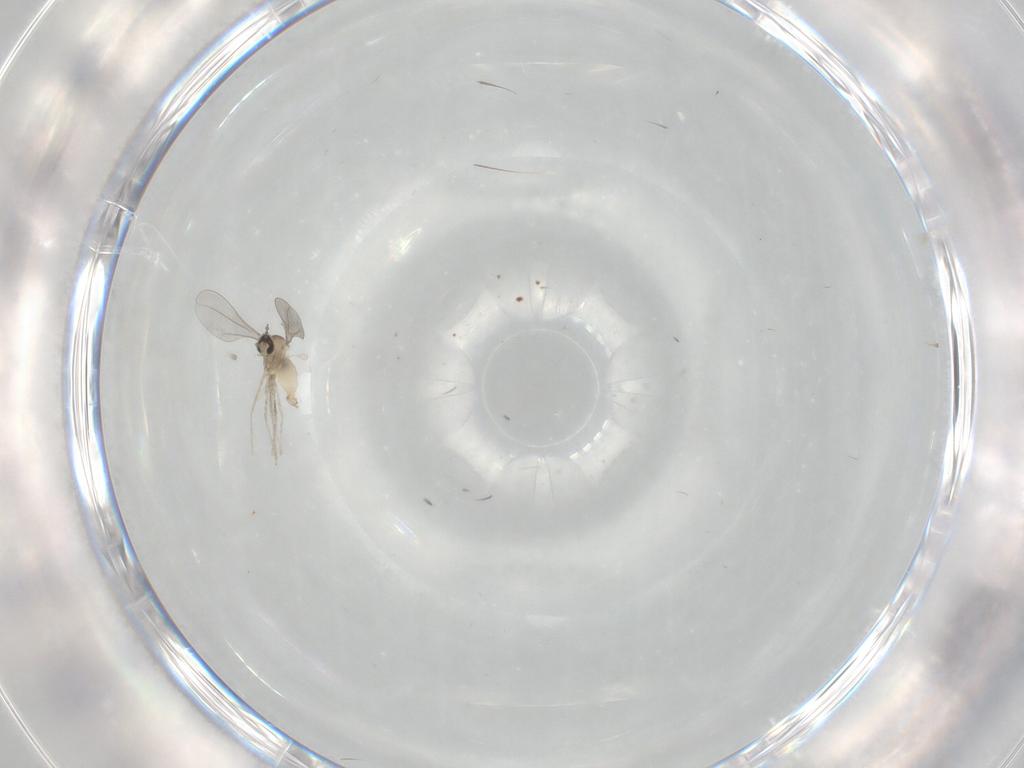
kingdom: Animalia
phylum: Arthropoda
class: Insecta
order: Diptera
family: Cecidomyiidae
